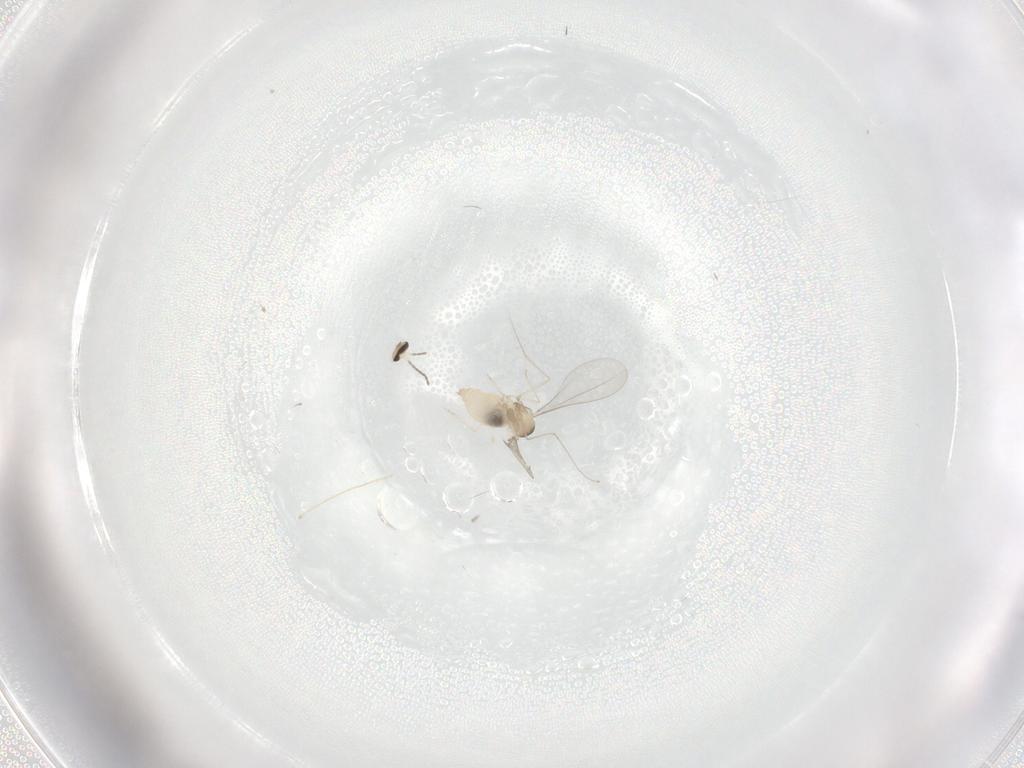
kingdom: Animalia
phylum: Arthropoda
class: Insecta
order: Diptera
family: Cecidomyiidae
